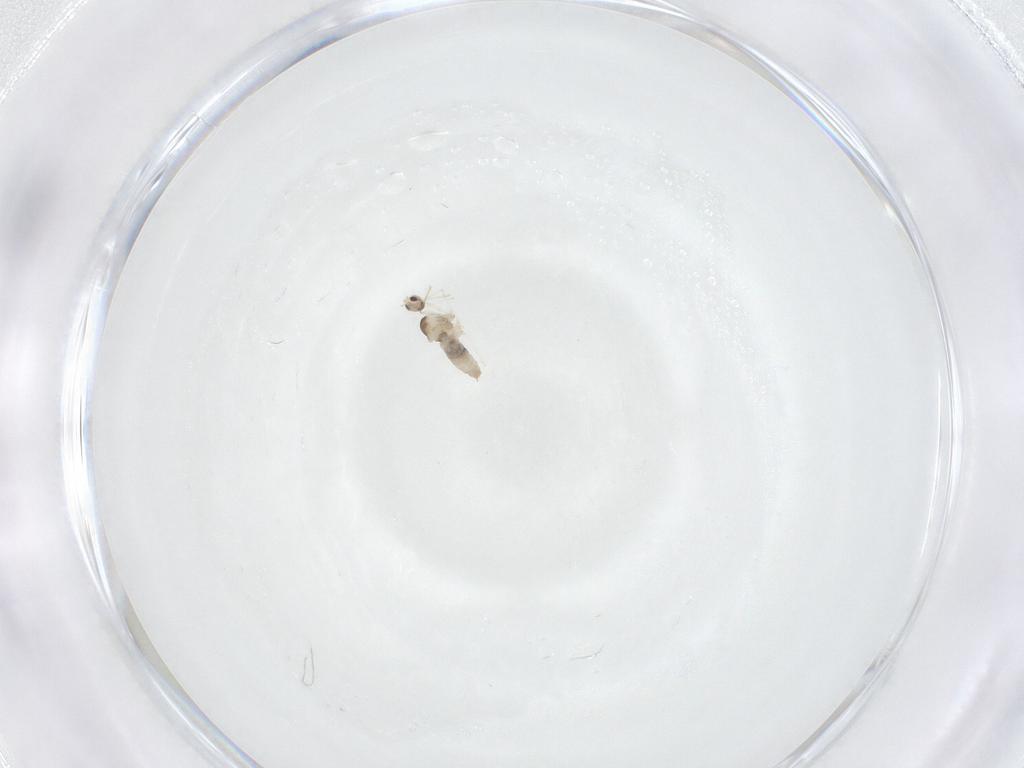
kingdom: Animalia
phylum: Arthropoda
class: Insecta
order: Diptera
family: Cecidomyiidae
